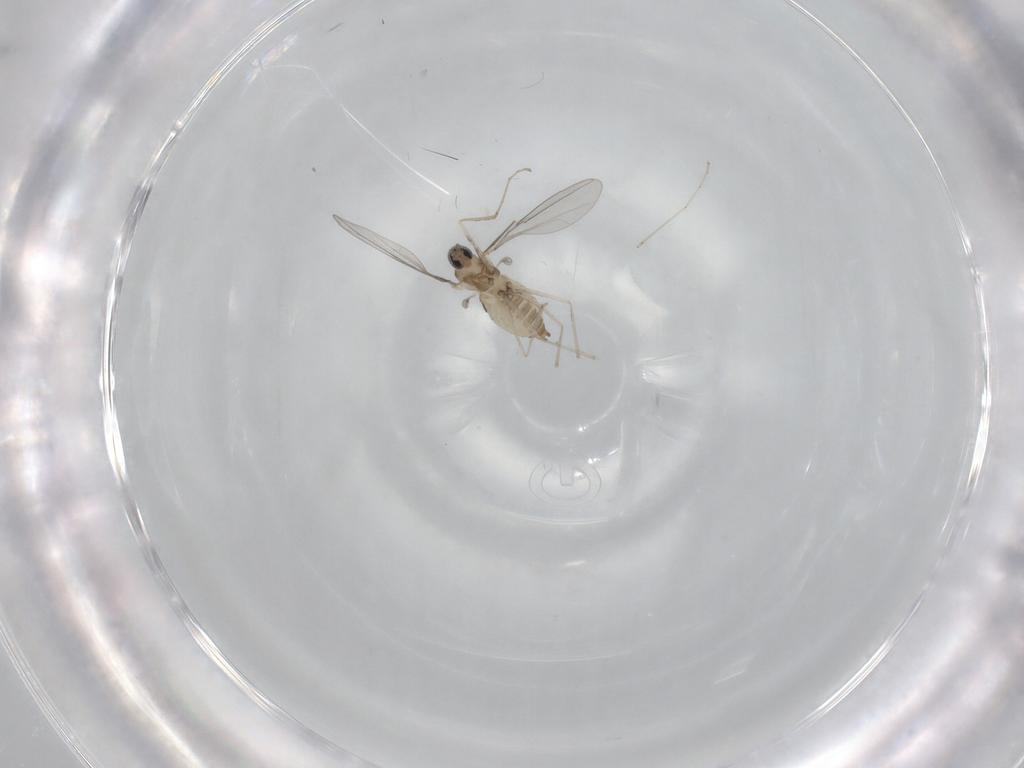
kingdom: Animalia
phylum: Arthropoda
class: Insecta
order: Diptera
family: Cecidomyiidae
